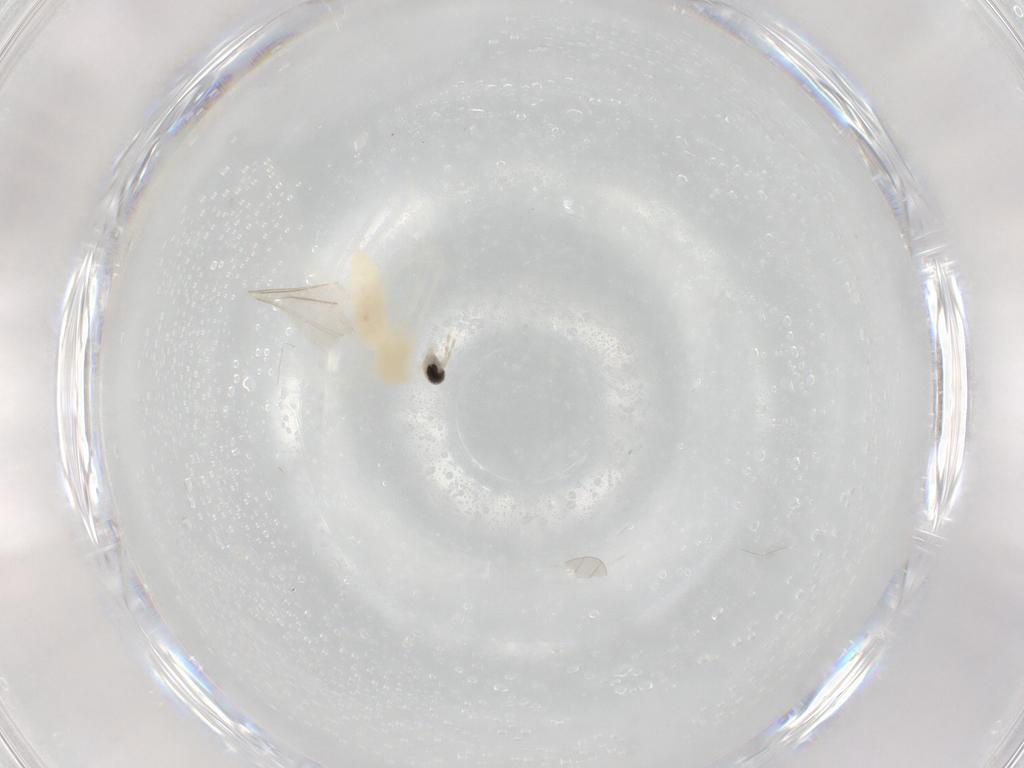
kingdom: Animalia
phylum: Arthropoda
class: Insecta
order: Diptera
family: Cecidomyiidae
